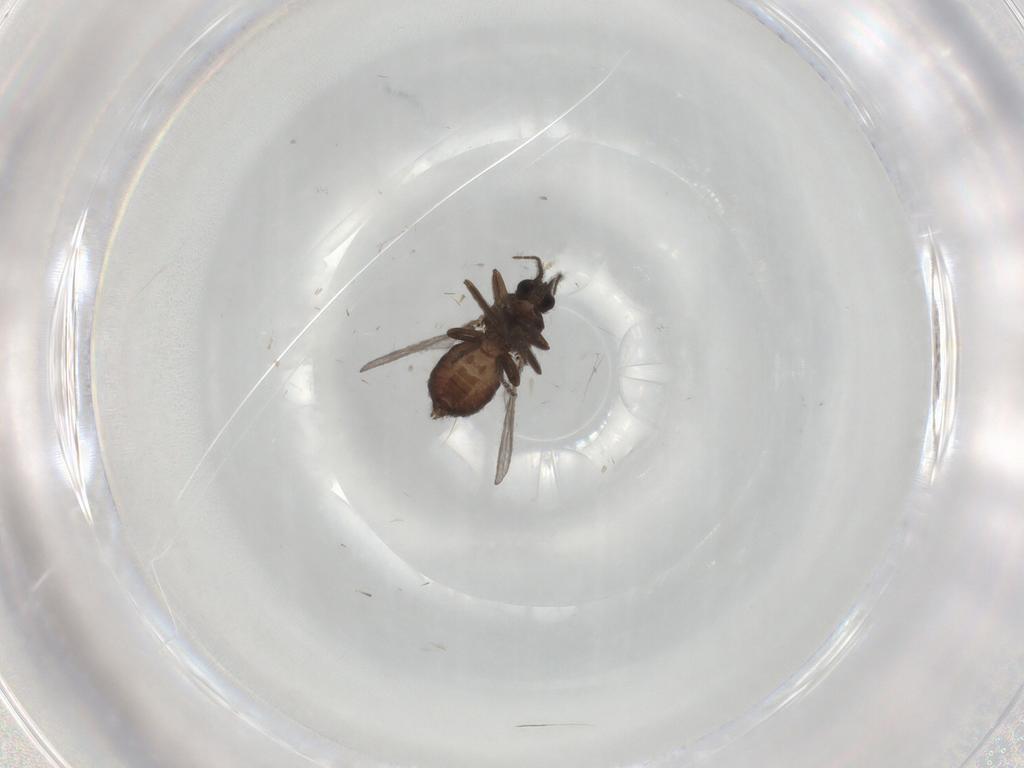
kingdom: Animalia
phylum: Arthropoda
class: Insecta
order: Diptera
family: Ceratopogonidae
